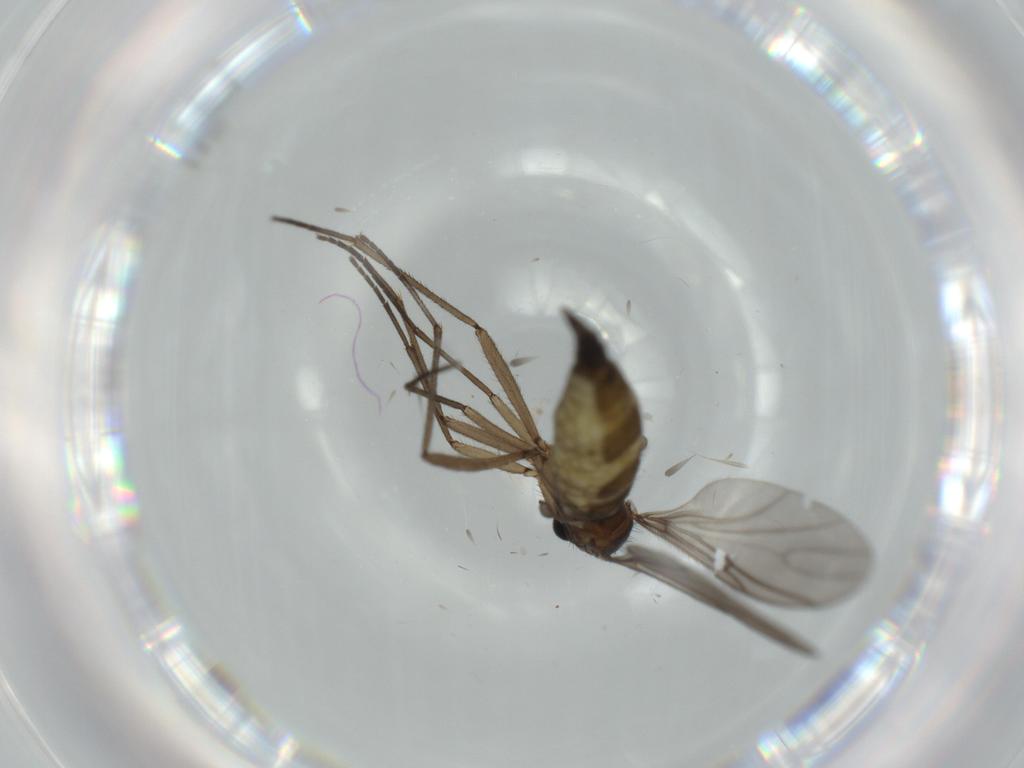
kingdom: Animalia
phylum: Arthropoda
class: Insecta
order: Diptera
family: Sciaridae
